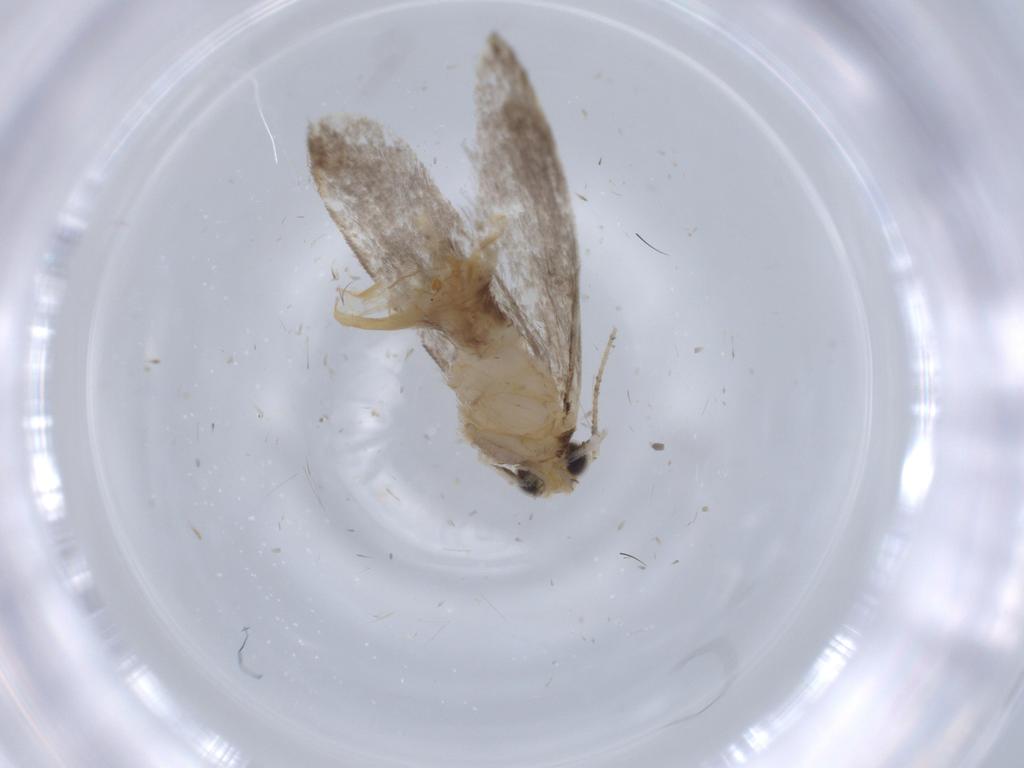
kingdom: Animalia
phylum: Arthropoda
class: Insecta
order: Lepidoptera
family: Tineidae
